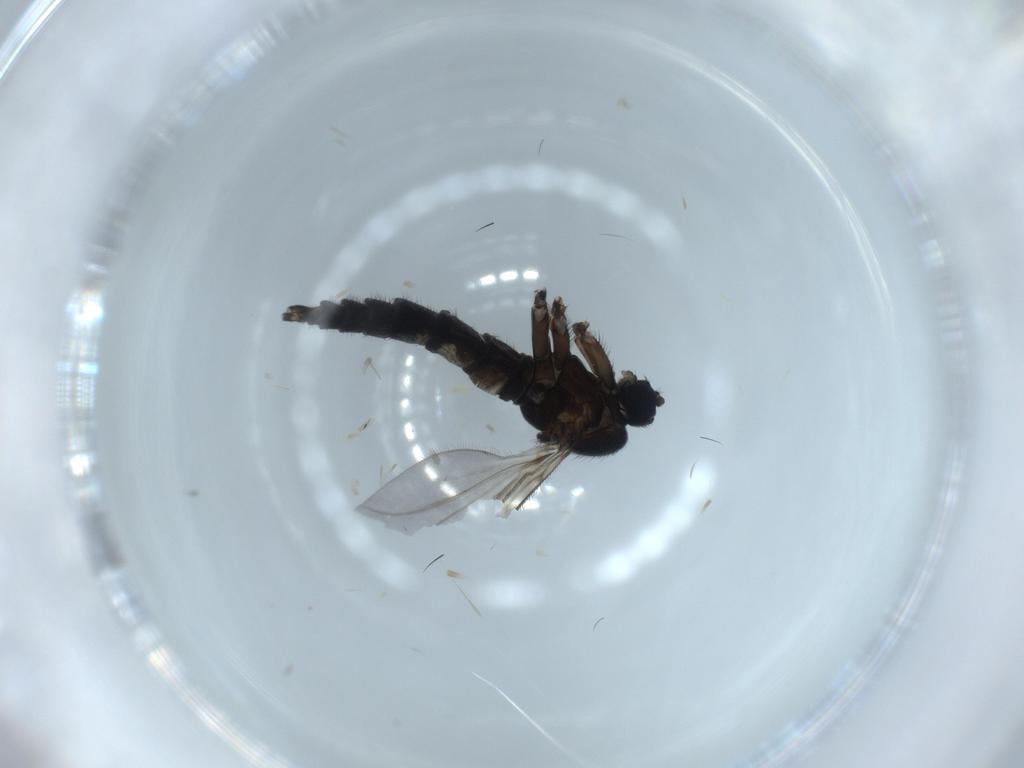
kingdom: Animalia
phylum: Arthropoda
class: Insecta
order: Diptera
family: Sciaridae
